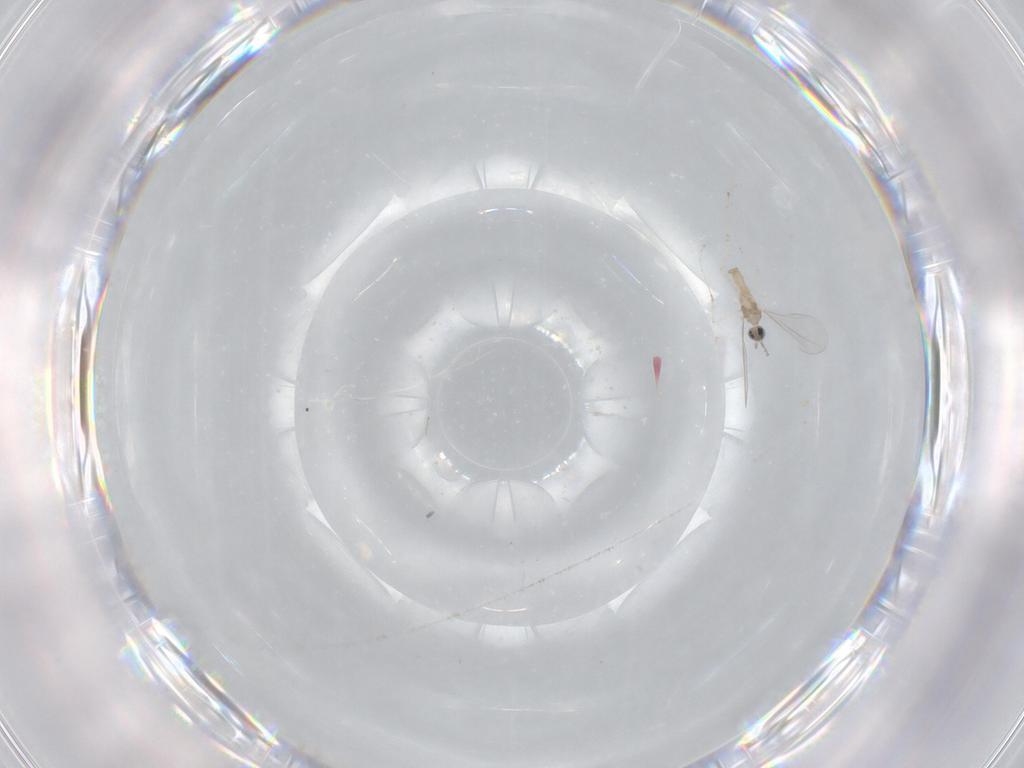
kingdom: Animalia
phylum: Arthropoda
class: Insecta
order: Diptera
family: Cecidomyiidae
